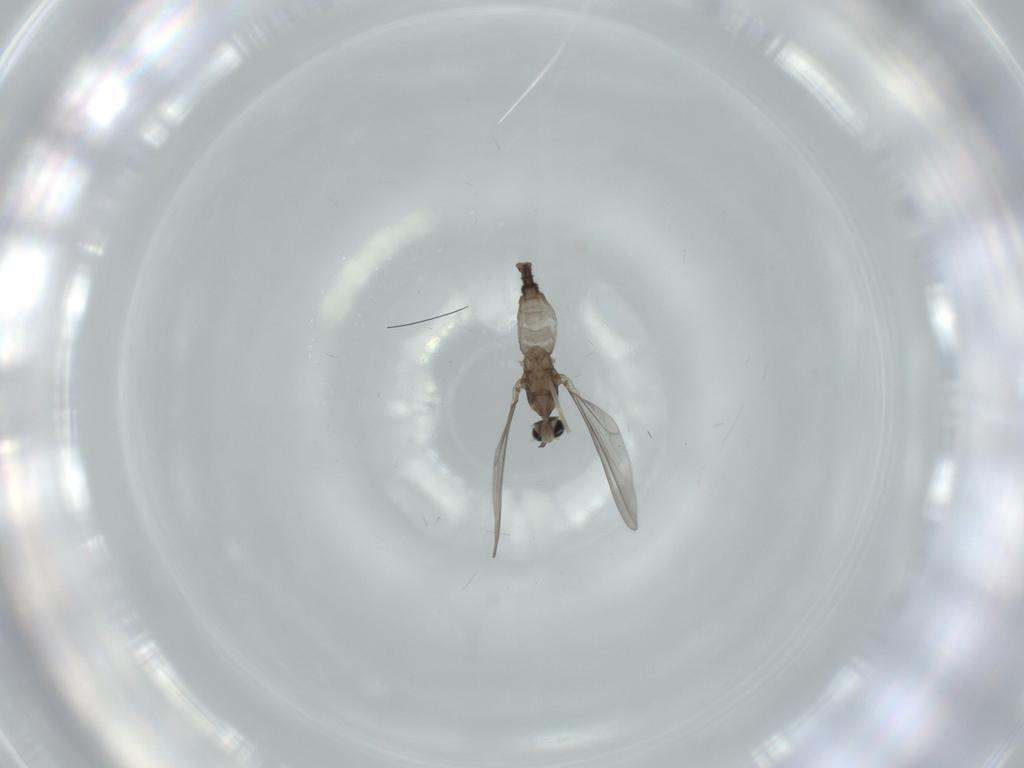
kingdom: Animalia
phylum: Arthropoda
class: Insecta
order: Diptera
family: Cecidomyiidae
